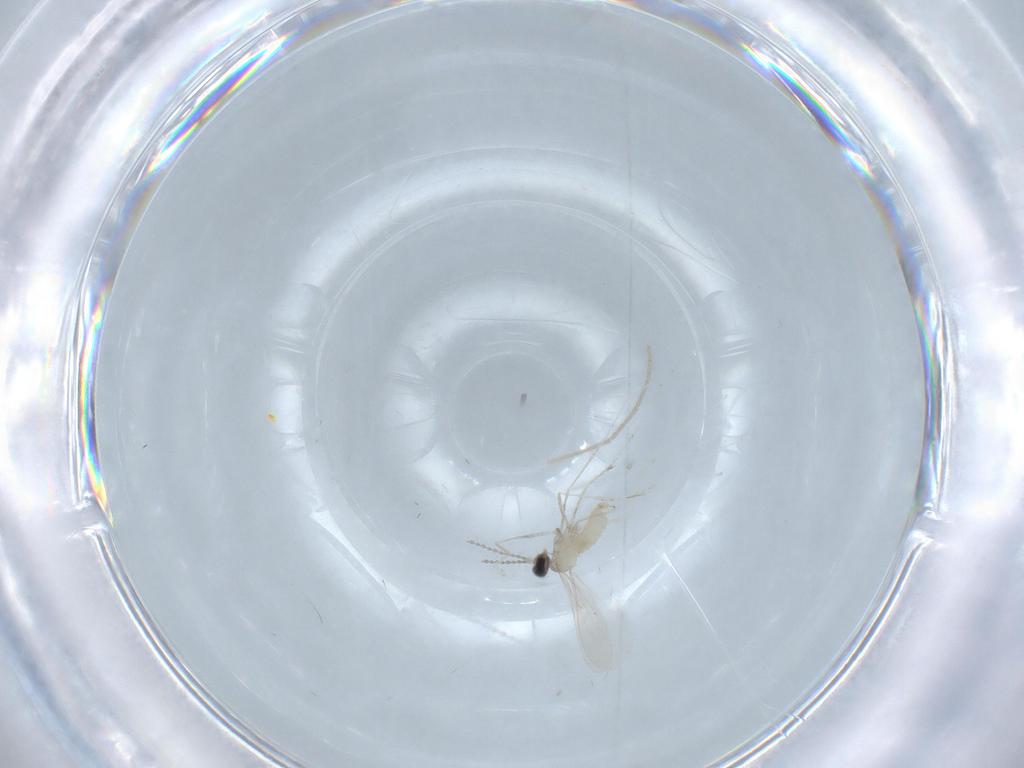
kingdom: Animalia
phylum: Arthropoda
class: Insecta
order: Diptera
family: Cecidomyiidae
